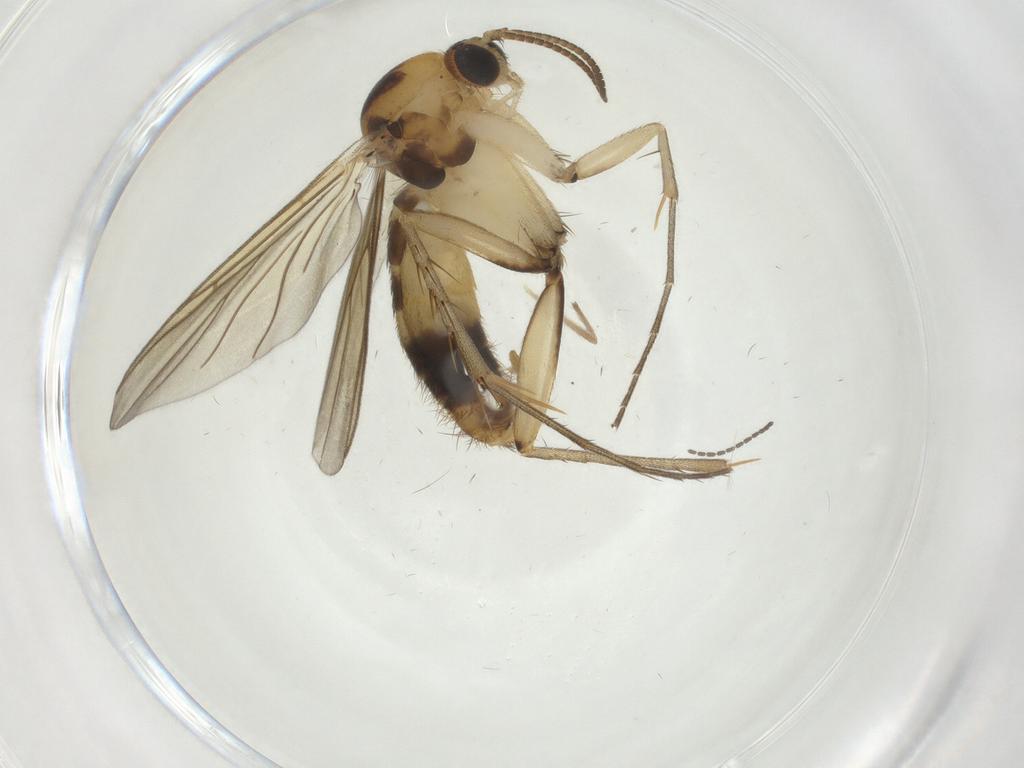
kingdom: Animalia
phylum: Arthropoda
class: Insecta
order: Diptera
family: Mycetophilidae
